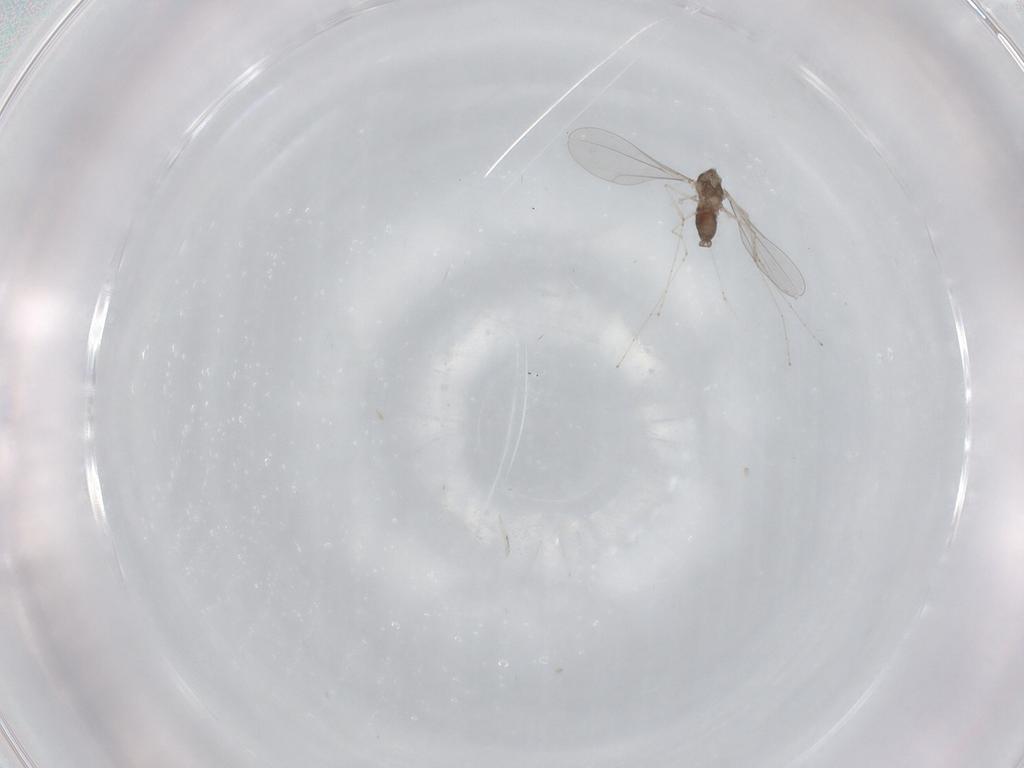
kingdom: Animalia
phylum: Arthropoda
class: Insecta
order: Diptera
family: Cecidomyiidae
